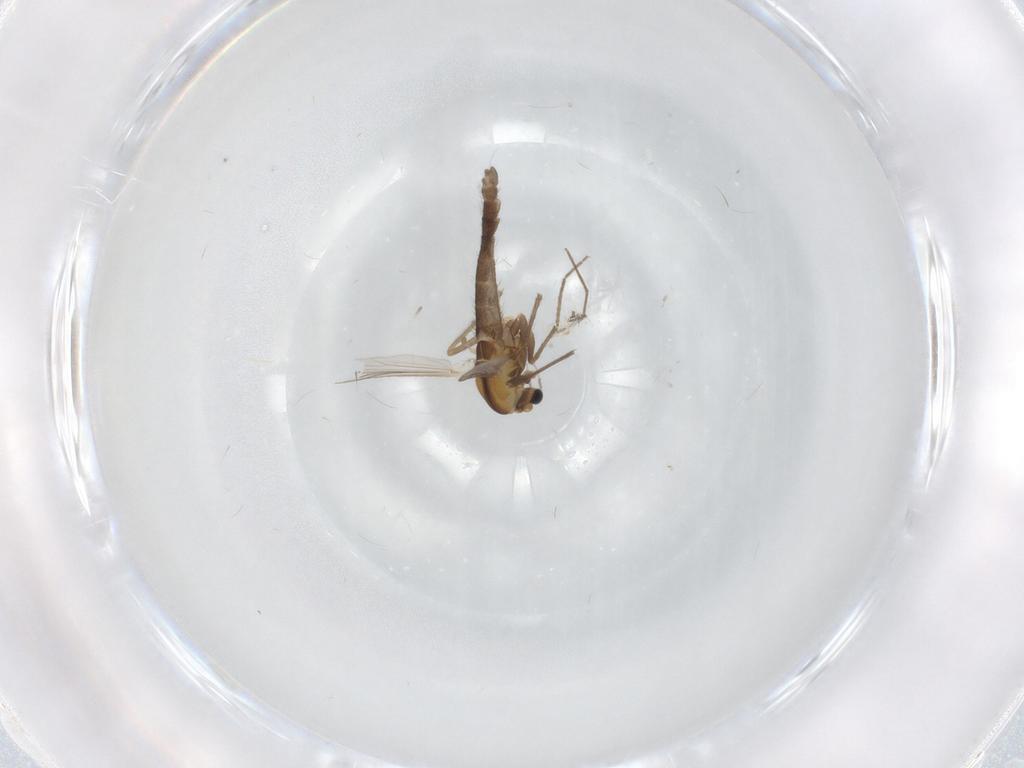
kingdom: Animalia
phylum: Arthropoda
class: Insecta
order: Diptera
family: Chironomidae
